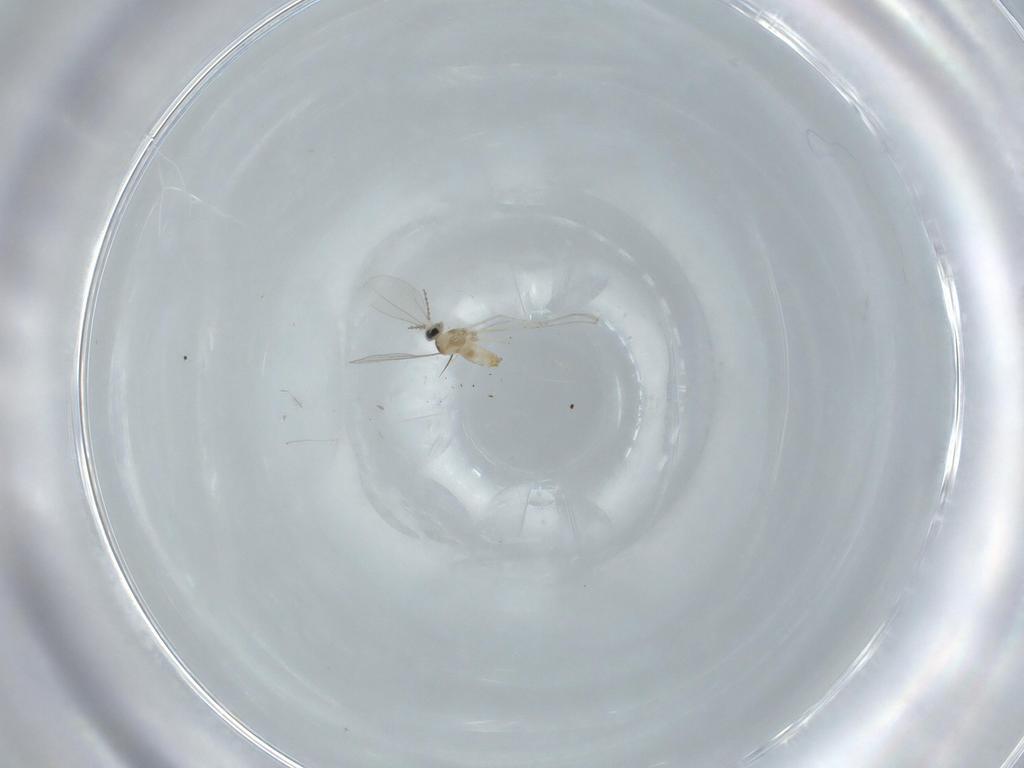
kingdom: Animalia
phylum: Arthropoda
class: Insecta
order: Diptera
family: Cecidomyiidae
